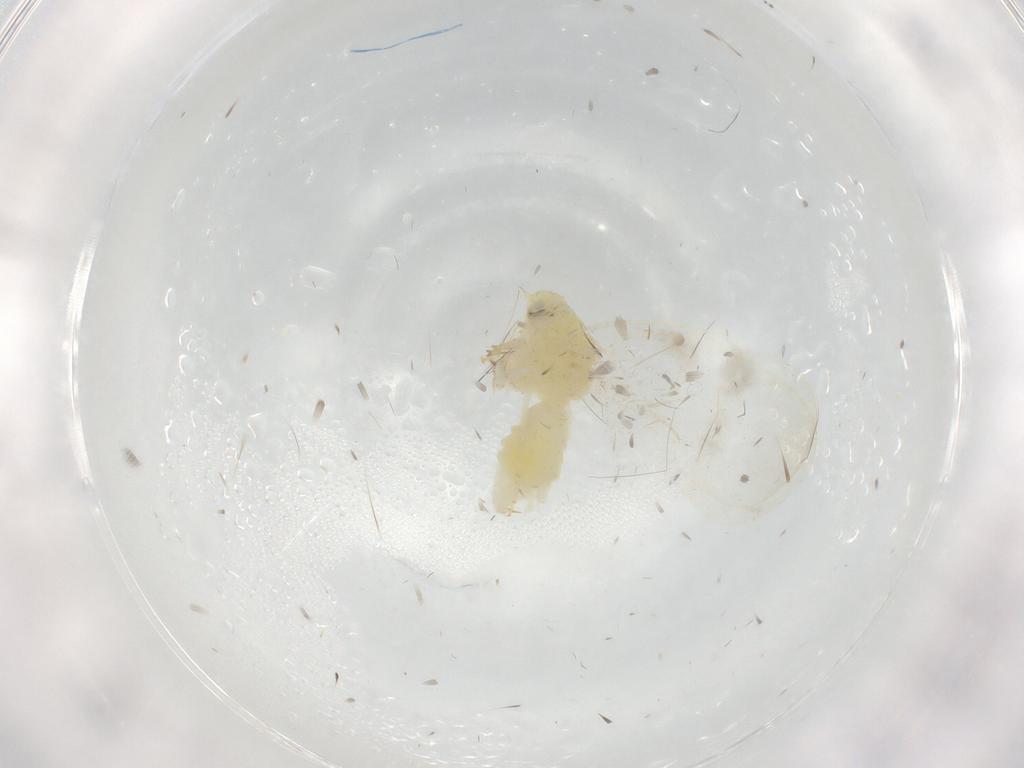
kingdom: Animalia
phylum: Arthropoda
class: Insecta
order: Hemiptera
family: Aleyrodidae
